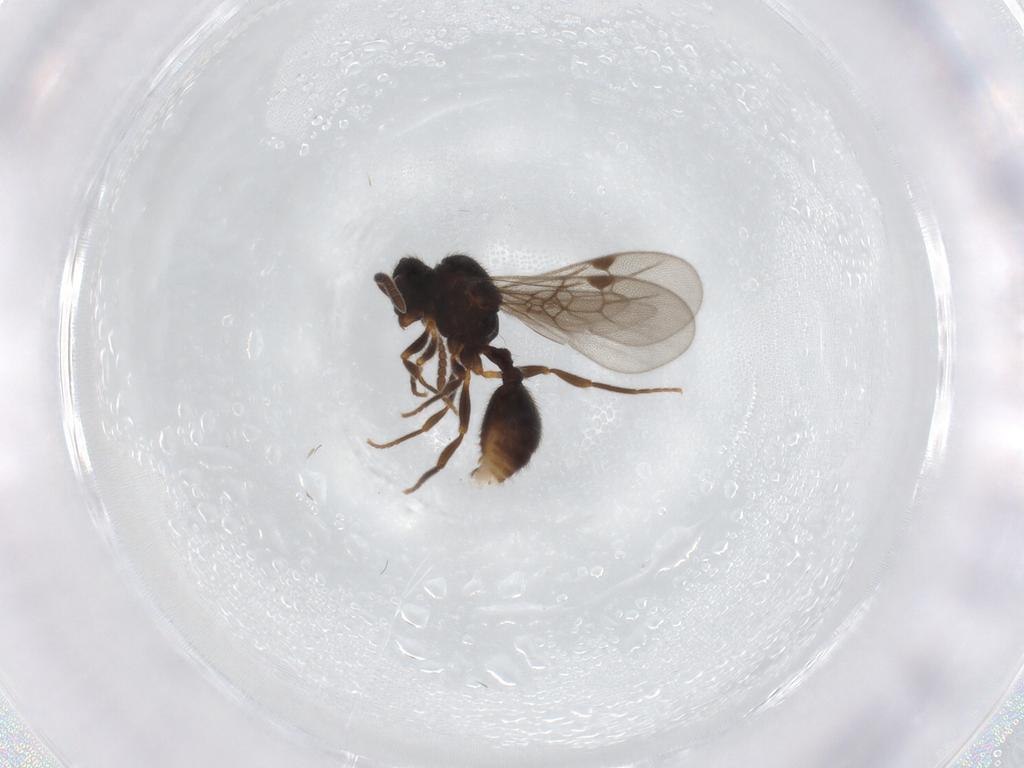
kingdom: Animalia
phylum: Arthropoda
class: Insecta
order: Hymenoptera
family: Formicidae
